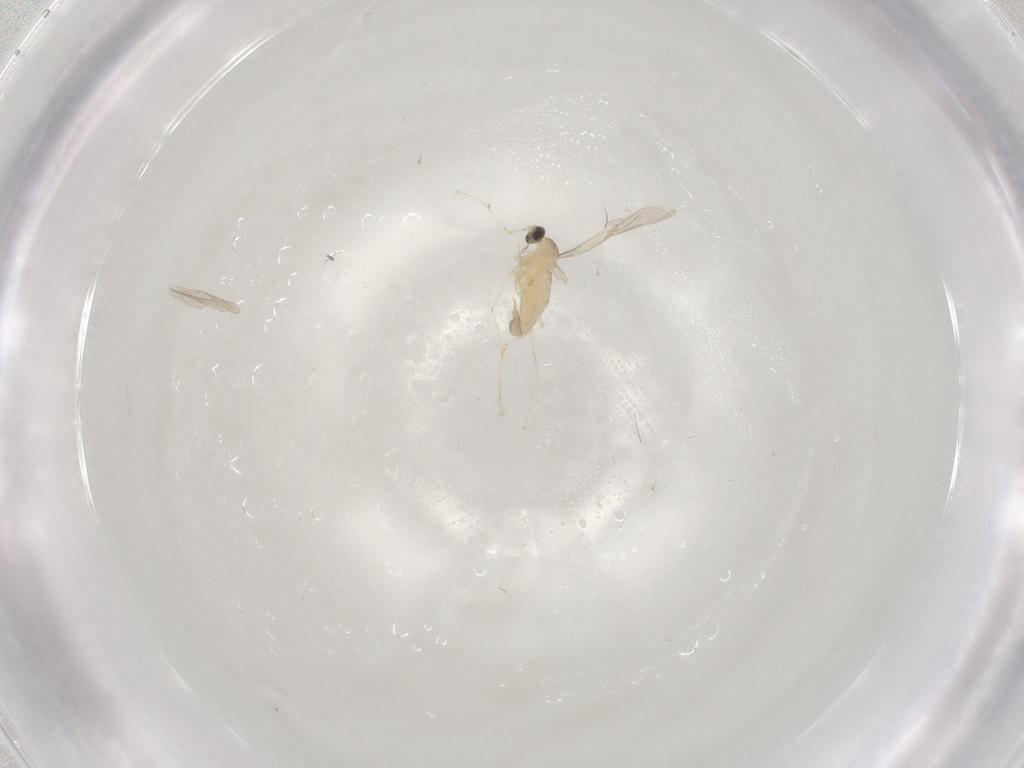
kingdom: Animalia
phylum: Arthropoda
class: Insecta
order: Diptera
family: Cecidomyiidae
